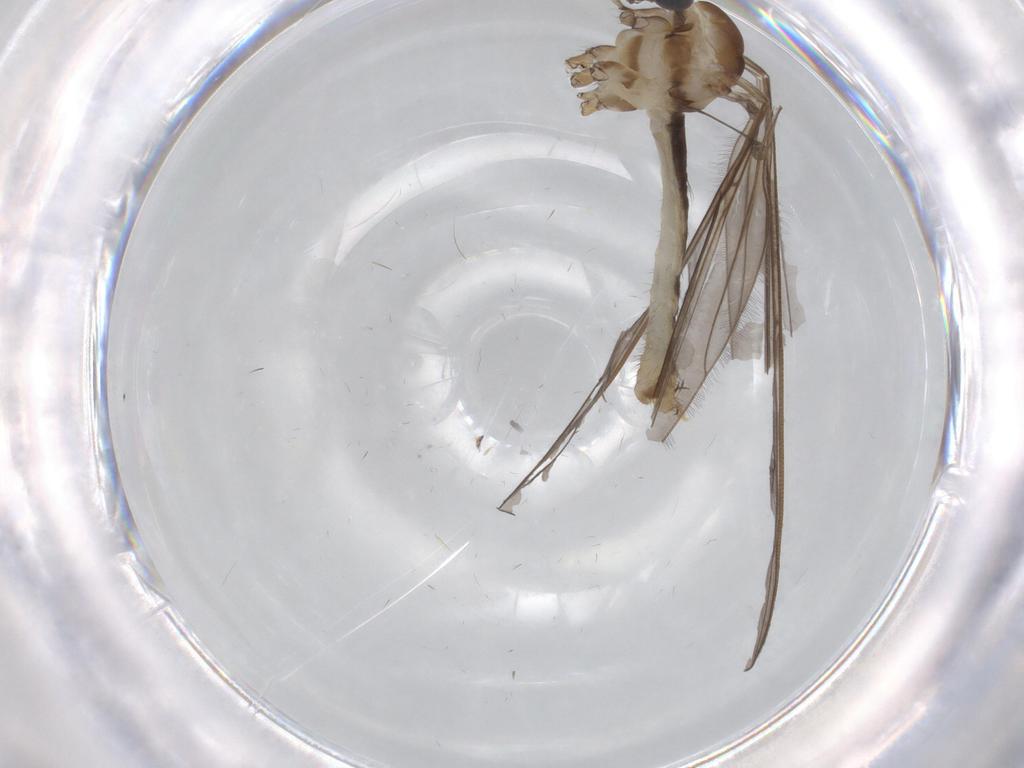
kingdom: Animalia
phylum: Arthropoda
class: Insecta
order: Diptera
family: Sciaridae
